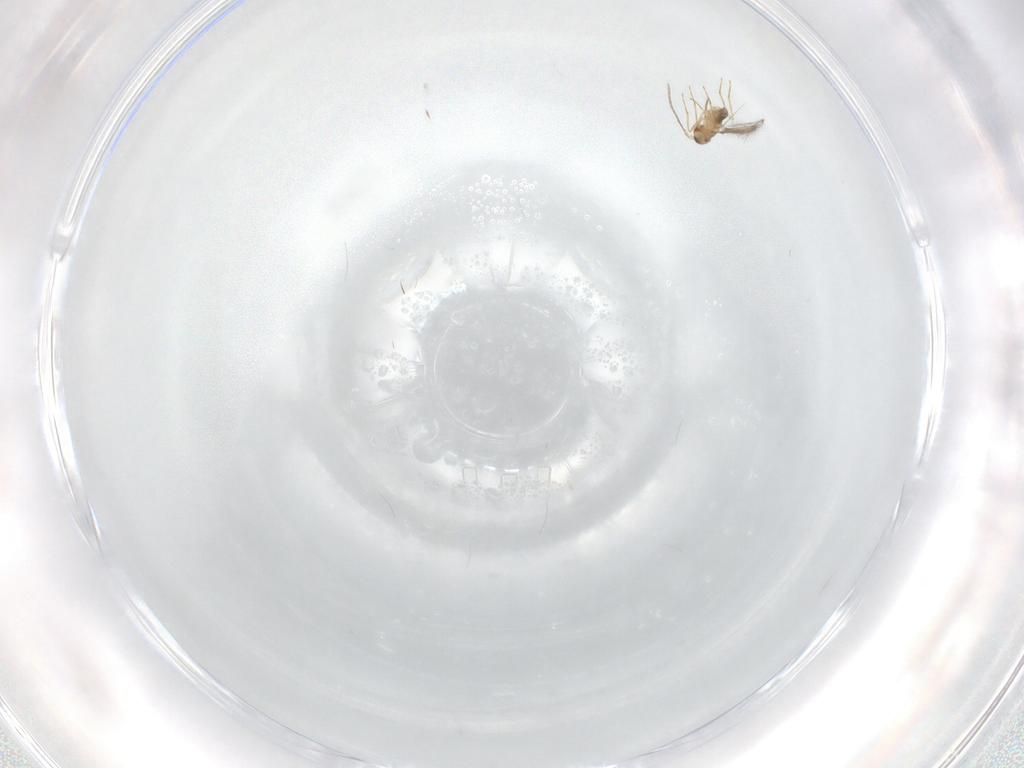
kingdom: Animalia
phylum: Arthropoda
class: Insecta
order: Hymenoptera
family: Mymaridae
